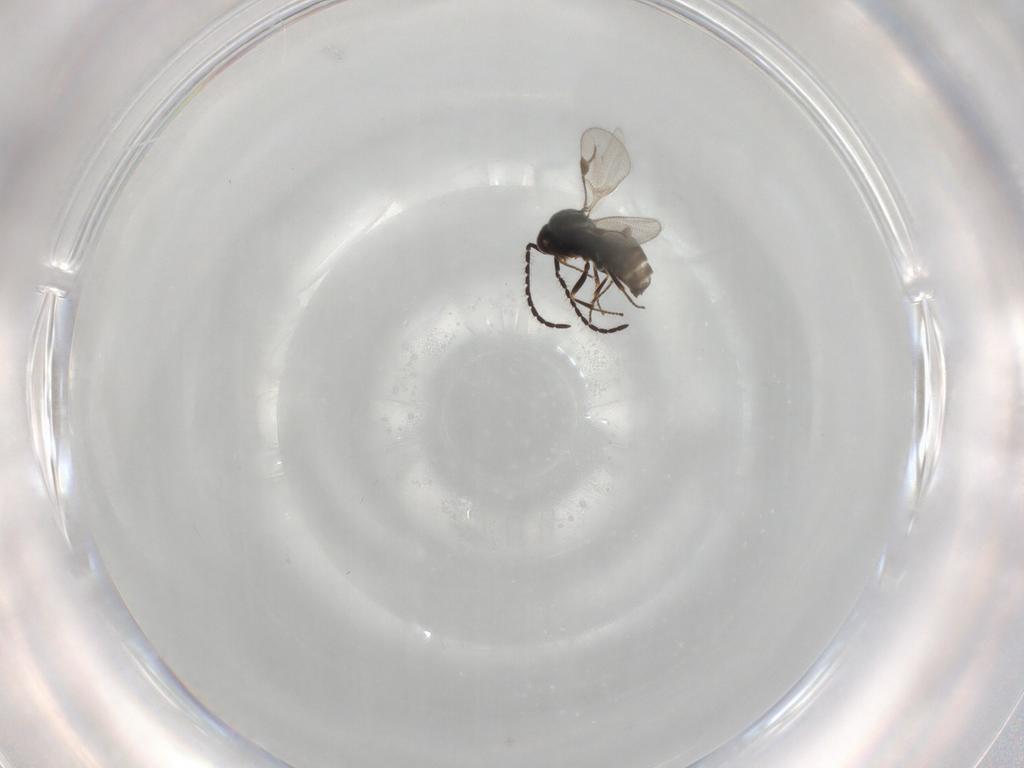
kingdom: Animalia
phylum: Arthropoda
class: Insecta
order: Hymenoptera
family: Megaspilidae
